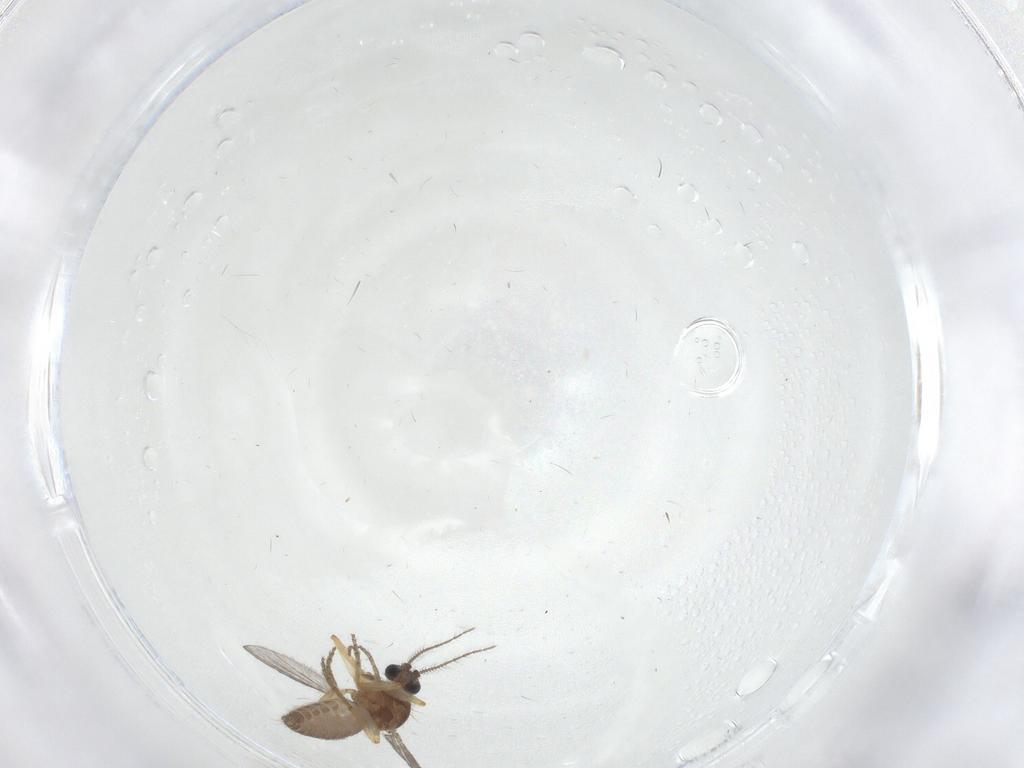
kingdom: Animalia
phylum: Arthropoda
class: Insecta
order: Diptera
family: Ceratopogonidae
